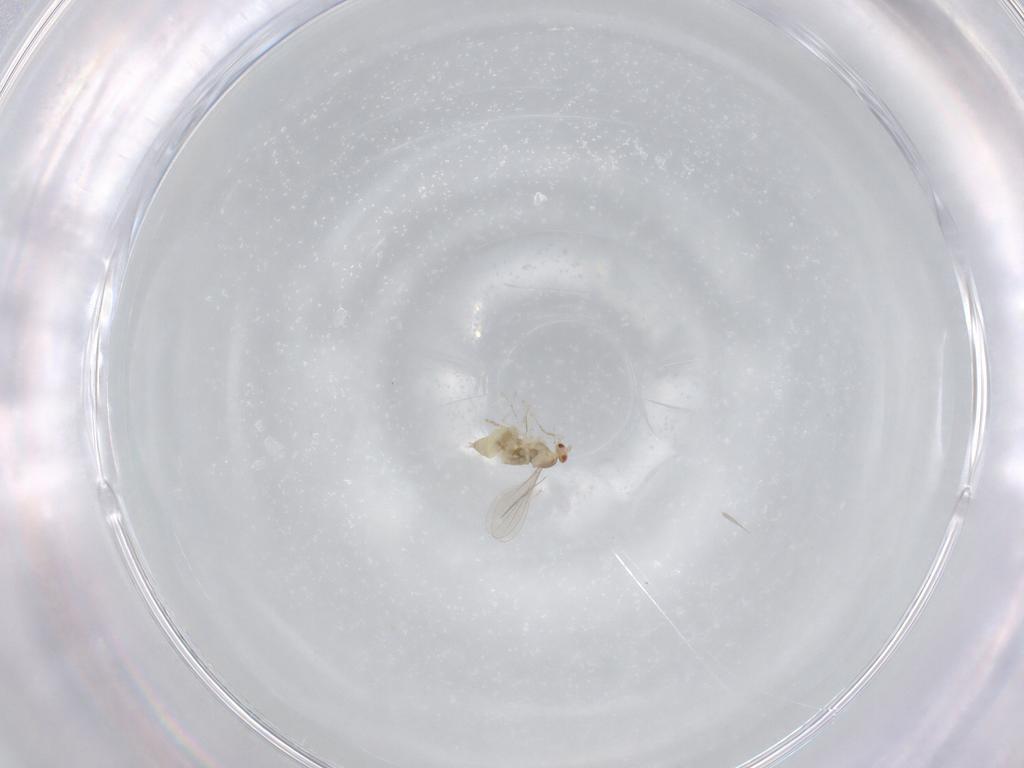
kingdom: Animalia
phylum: Arthropoda
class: Insecta
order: Diptera
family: Cecidomyiidae
